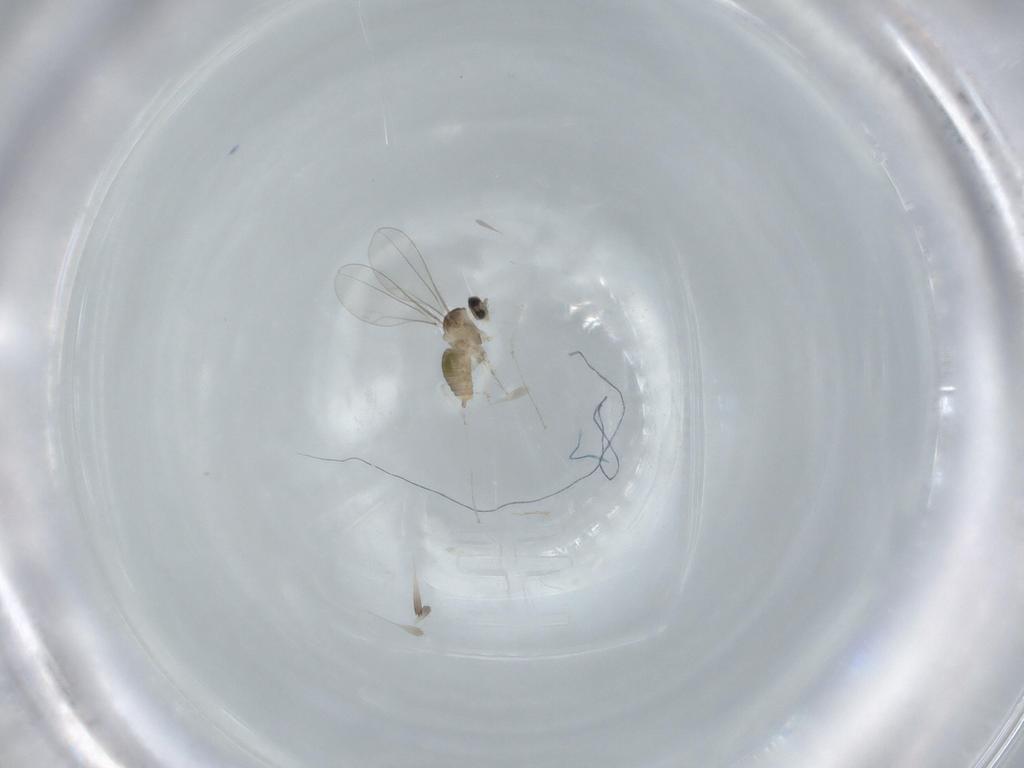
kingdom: Animalia
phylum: Arthropoda
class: Insecta
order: Diptera
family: Cecidomyiidae
